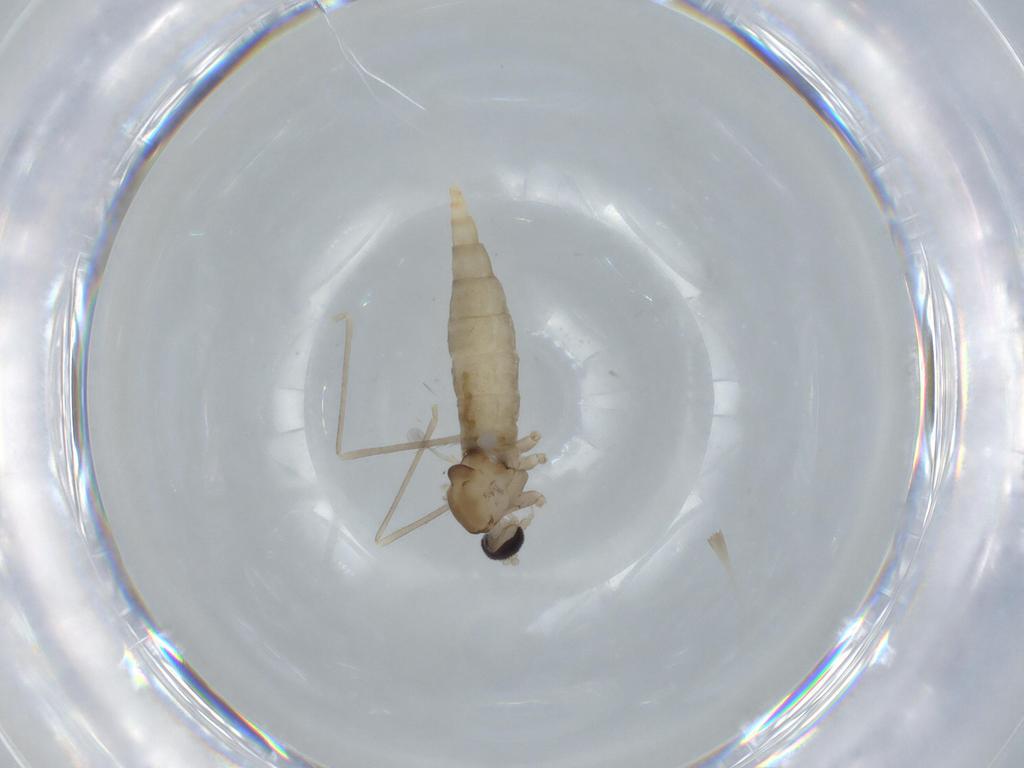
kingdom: Animalia
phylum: Arthropoda
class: Insecta
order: Diptera
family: Cecidomyiidae
